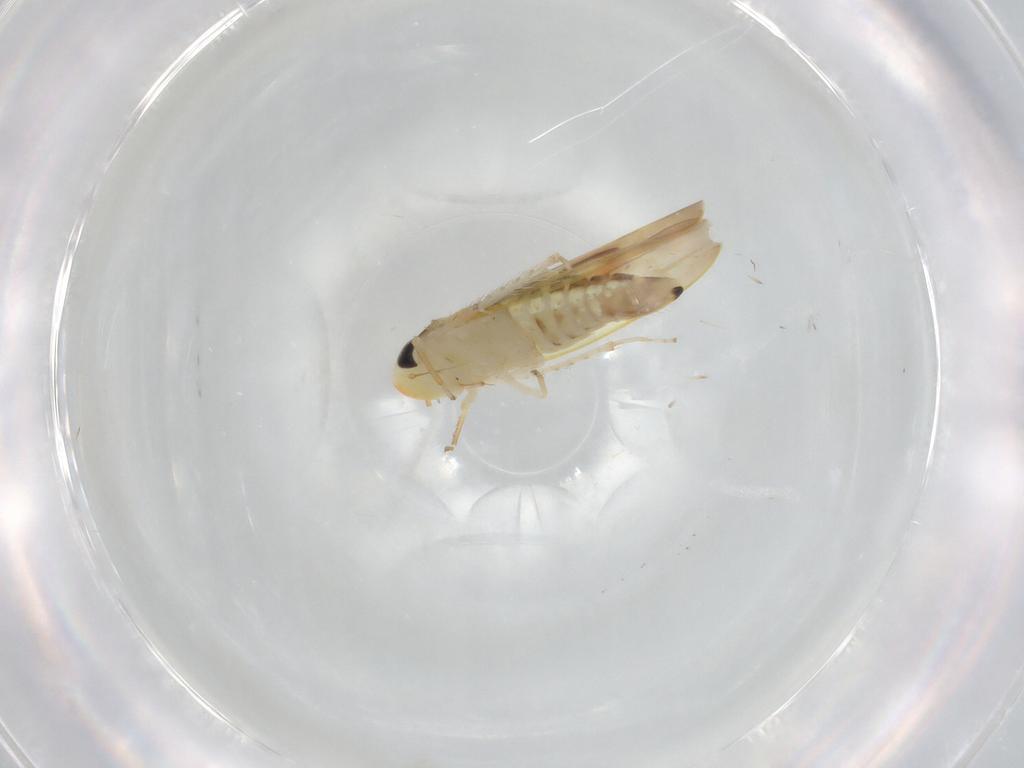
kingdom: Animalia
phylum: Arthropoda
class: Insecta
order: Hemiptera
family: Cicadellidae
